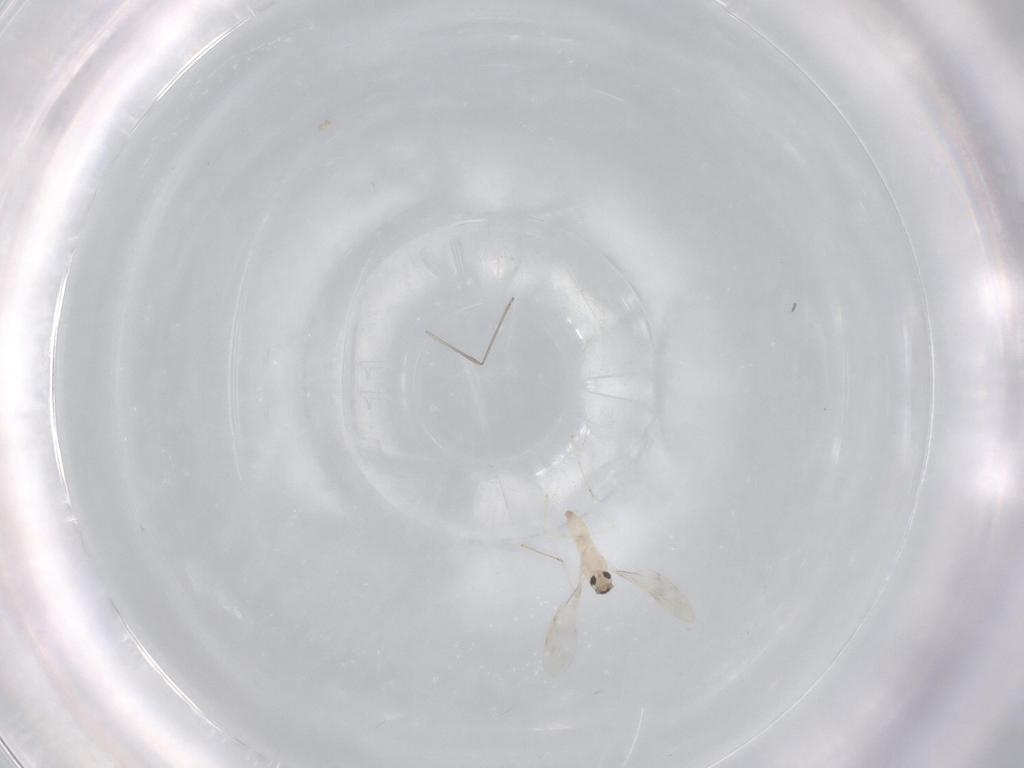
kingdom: Animalia
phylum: Arthropoda
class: Insecta
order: Diptera
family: Cecidomyiidae
